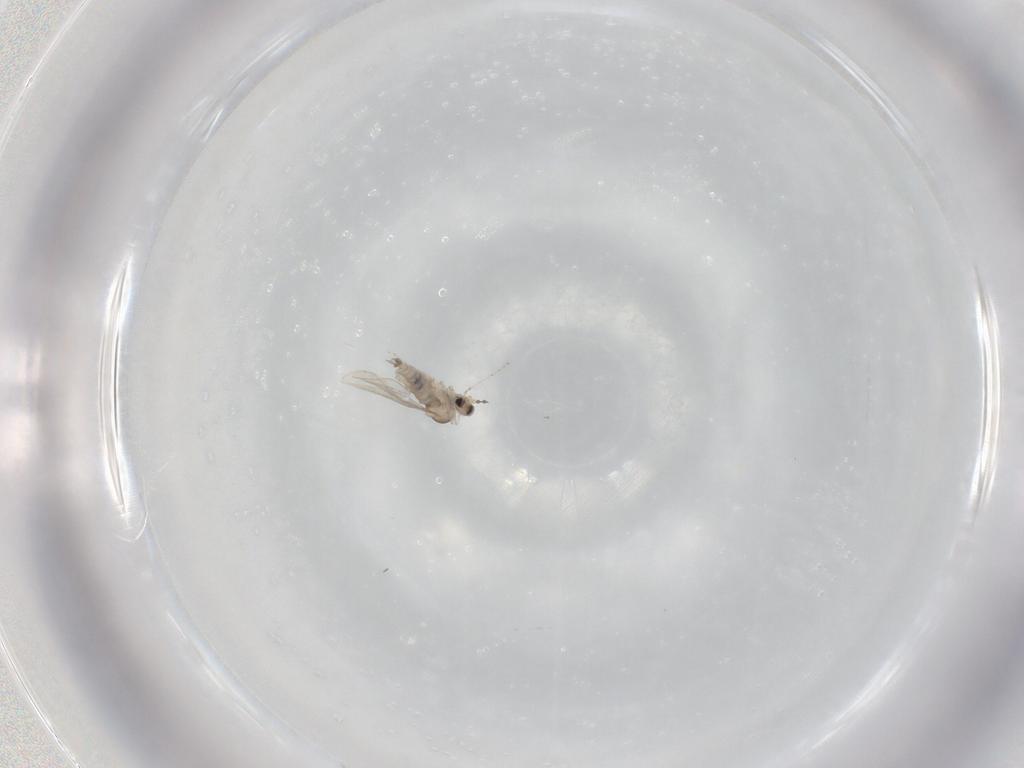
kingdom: Animalia
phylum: Arthropoda
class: Insecta
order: Diptera
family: Cecidomyiidae
